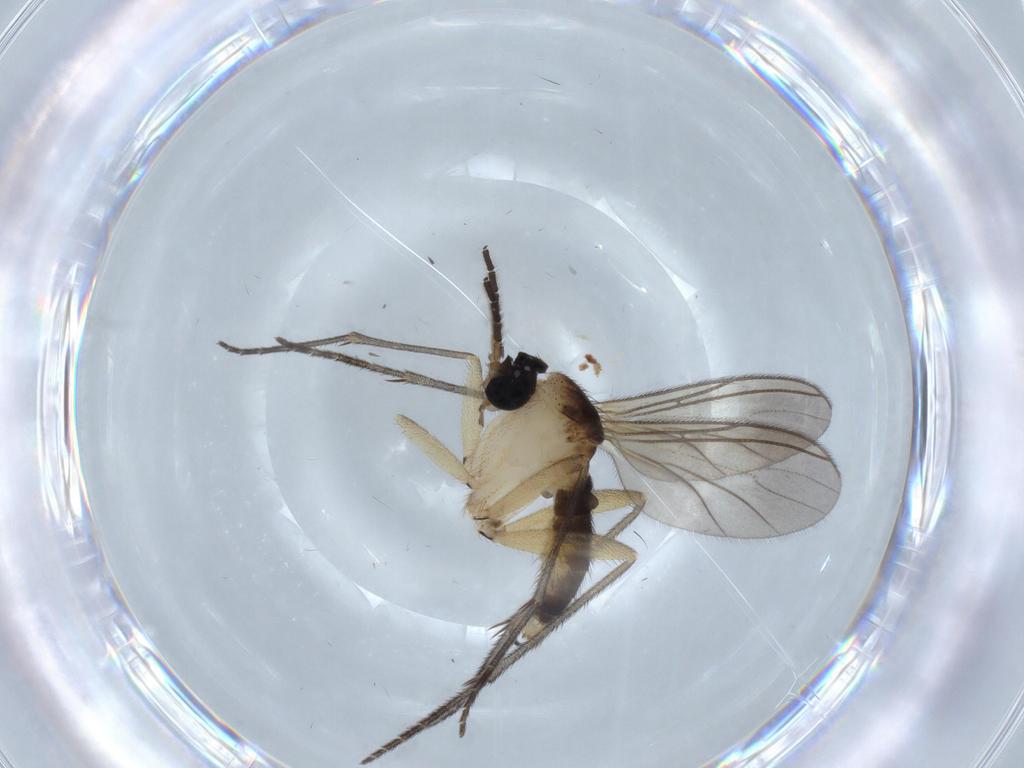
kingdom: Animalia
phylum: Arthropoda
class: Insecta
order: Diptera
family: Sciaridae
